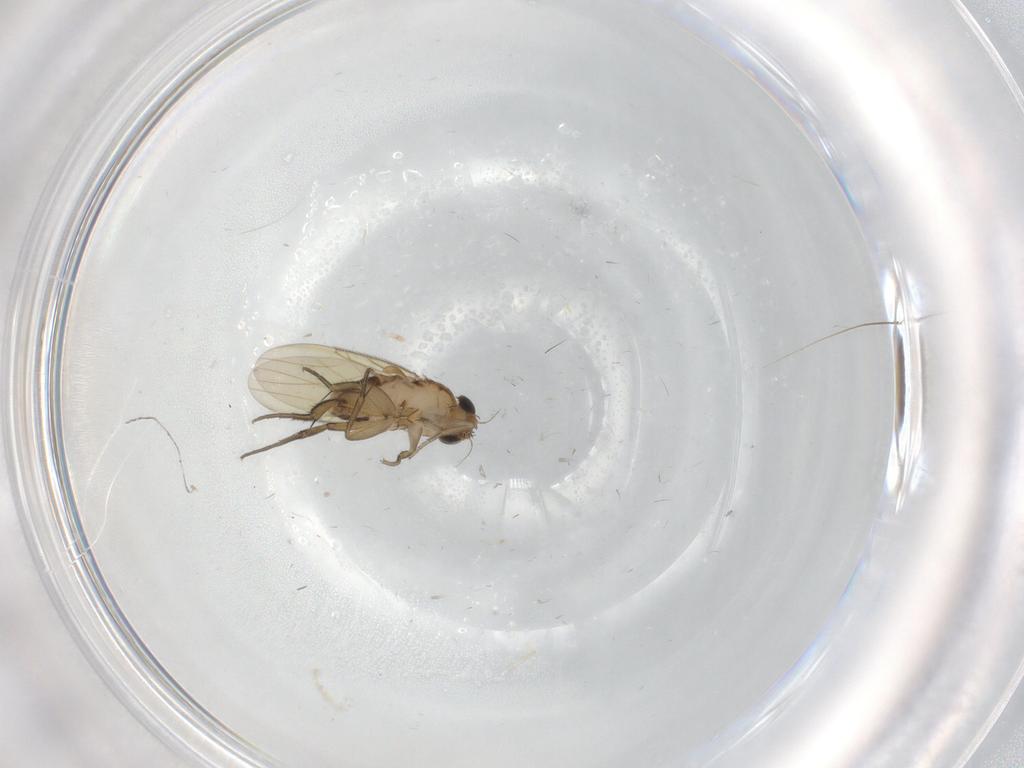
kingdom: Animalia
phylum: Arthropoda
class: Insecta
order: Diptera
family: Phoridae
